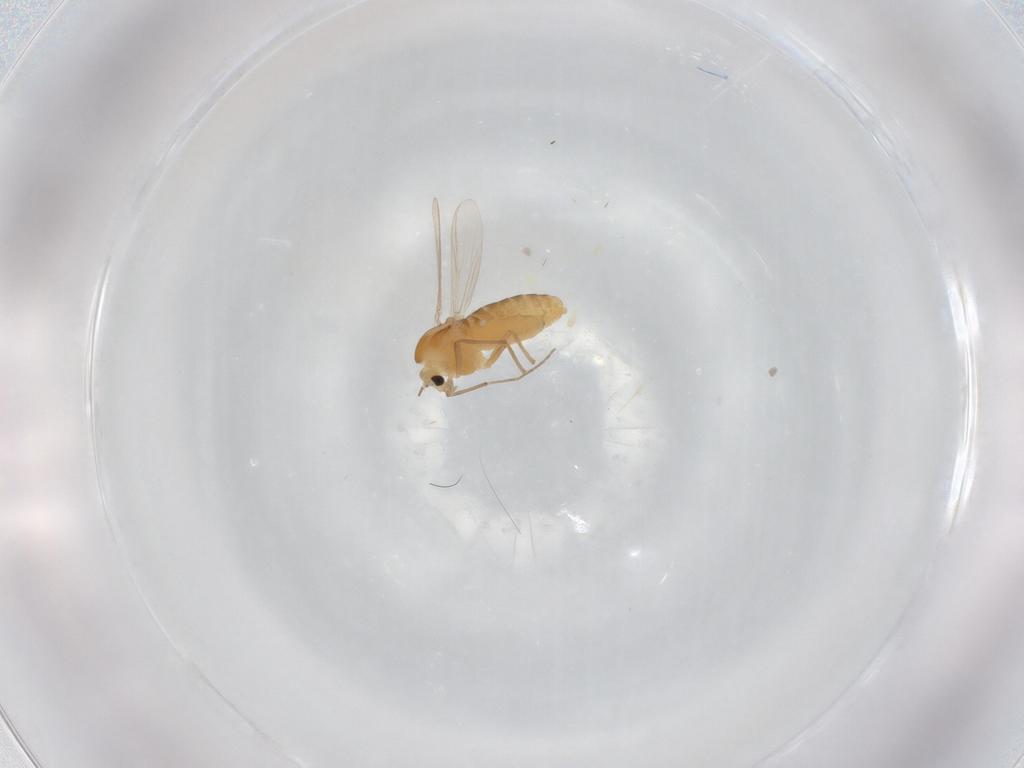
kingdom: Animalia
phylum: Arthropoda
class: Insecta
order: Diptera
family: Chironomidae
